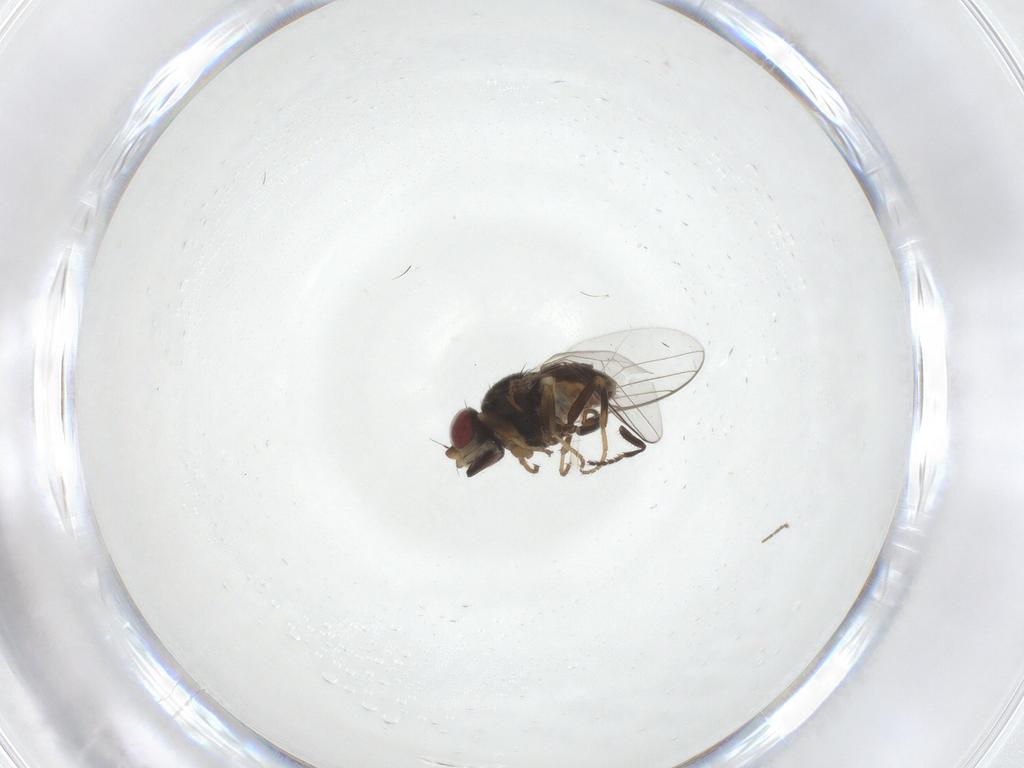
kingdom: Animalia
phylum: Arthropoda
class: Insecta
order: Diptera
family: Chloropidae
